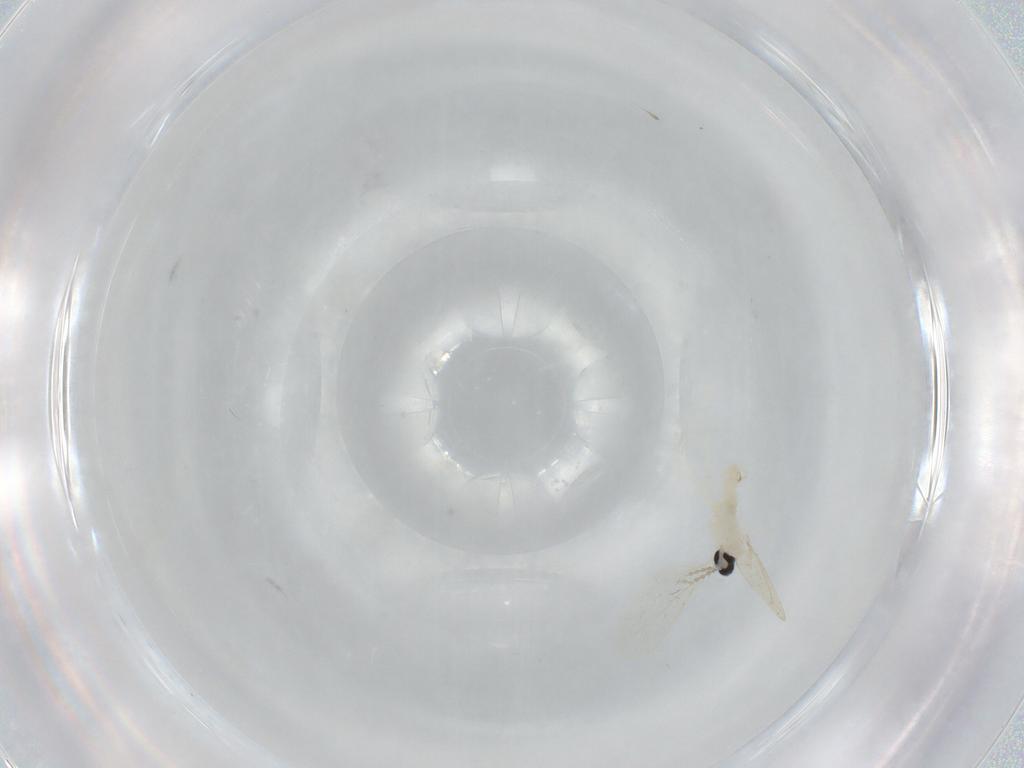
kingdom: Animalia
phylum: Arthropoda
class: Insecta
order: Diptera
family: Cecidomyiidae
